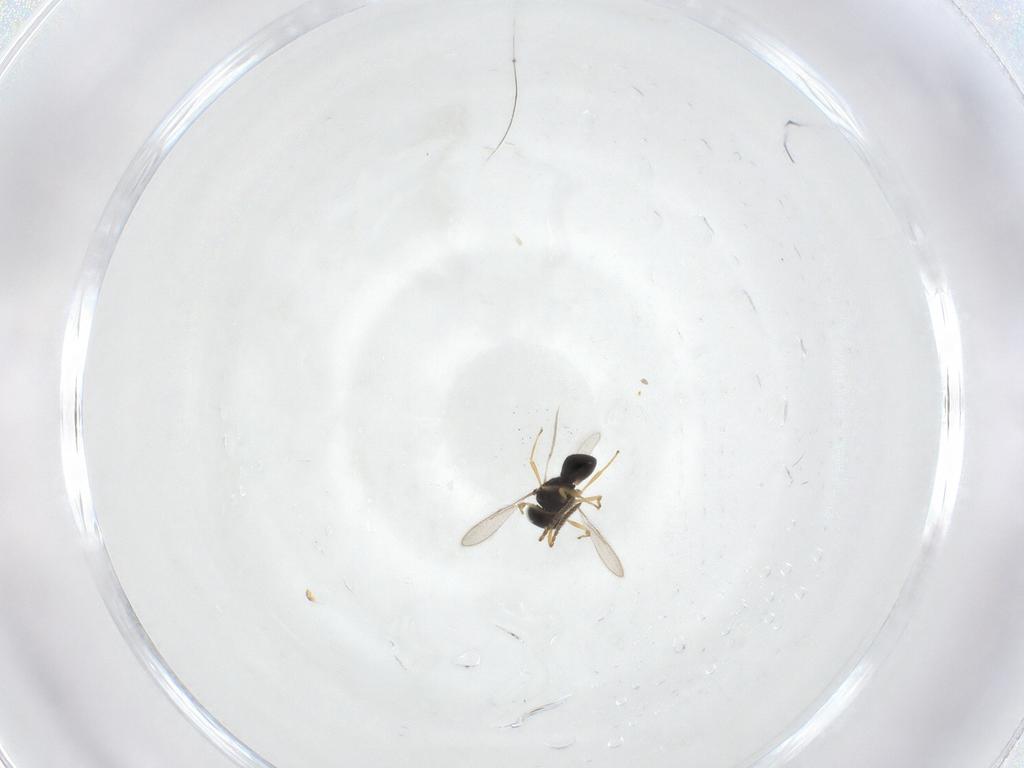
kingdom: Animalia
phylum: Arthropoda
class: Insecta
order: Hymenoptera
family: Scelionidae
